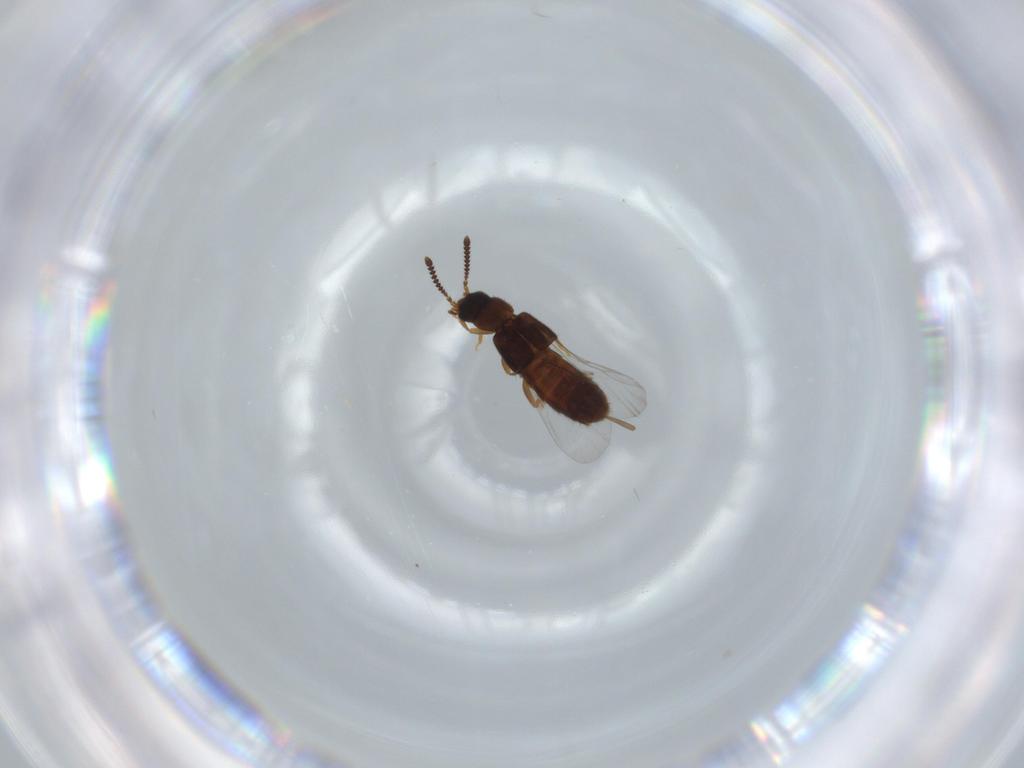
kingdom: Animalia
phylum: Arthropoda
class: Insecta
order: Coleoptera
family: Staphylinidae
